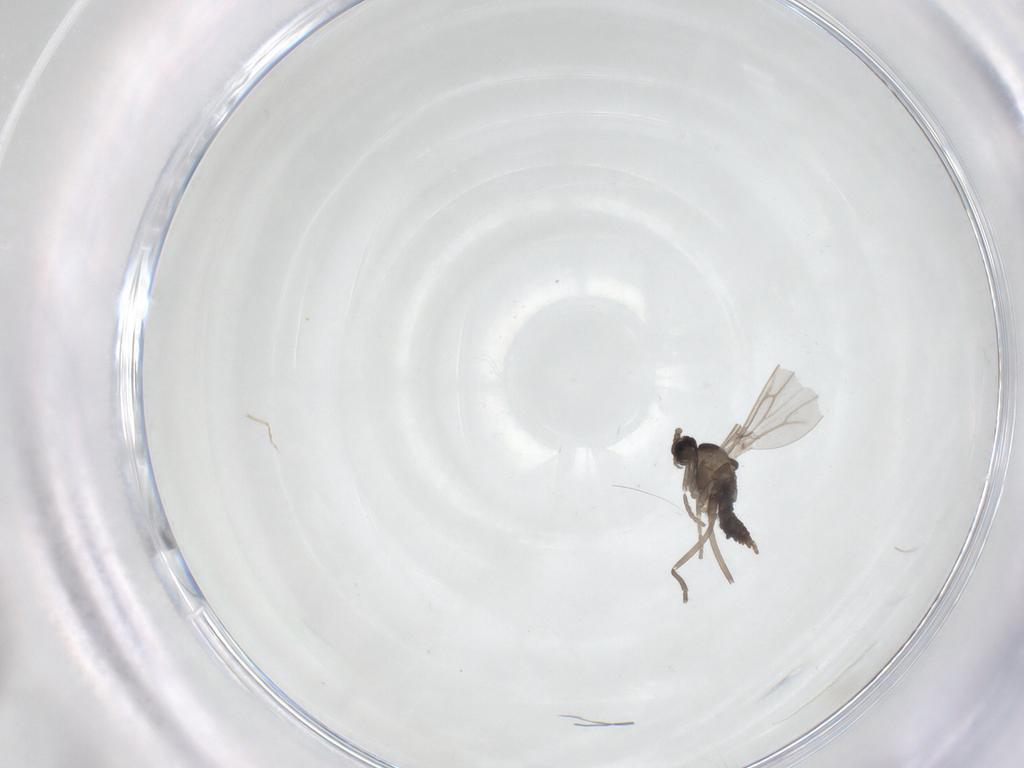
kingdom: Animalia
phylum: Arthropoda
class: Insecta
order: Diptera
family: Cecidomyiidae
